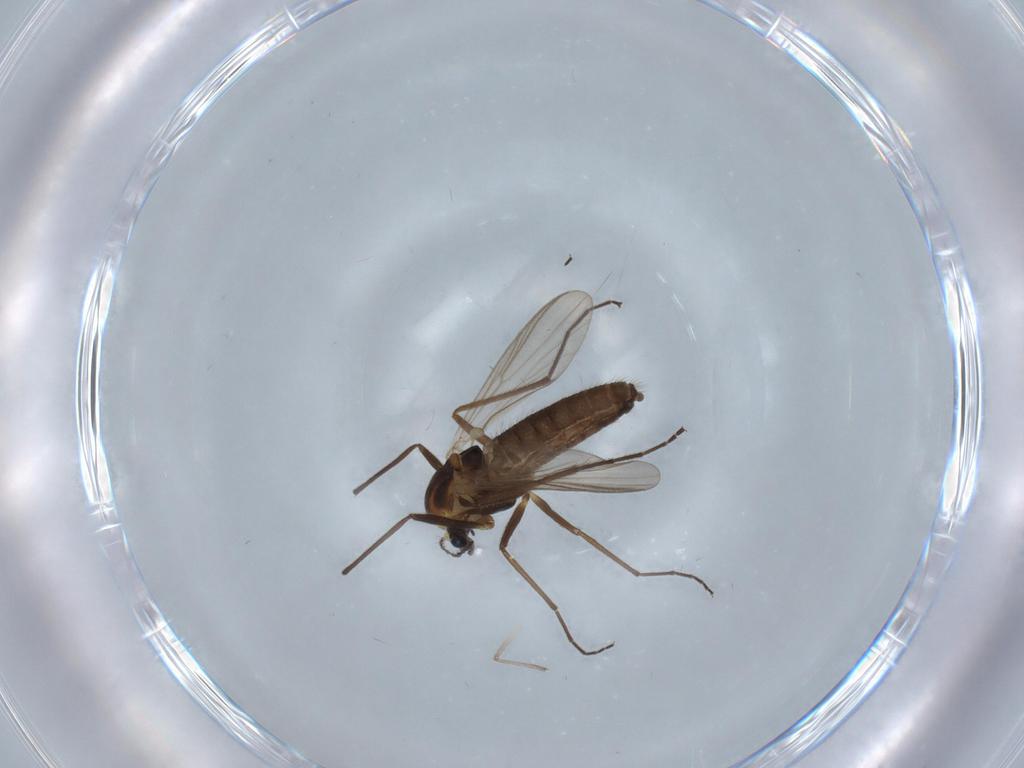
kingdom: Animalia
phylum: Arthropoda
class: Insecta
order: Diptera
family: Chironomidae
